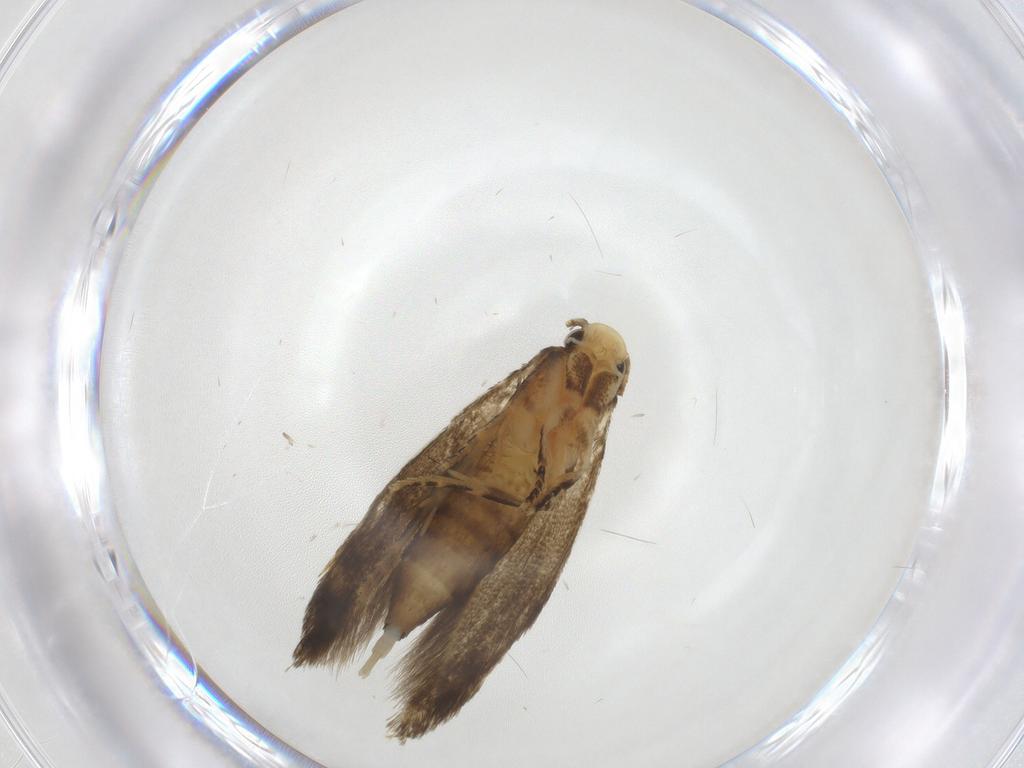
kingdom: Animalia
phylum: Arthropoda
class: Insecta
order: Lepidoptera
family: Tineidae
